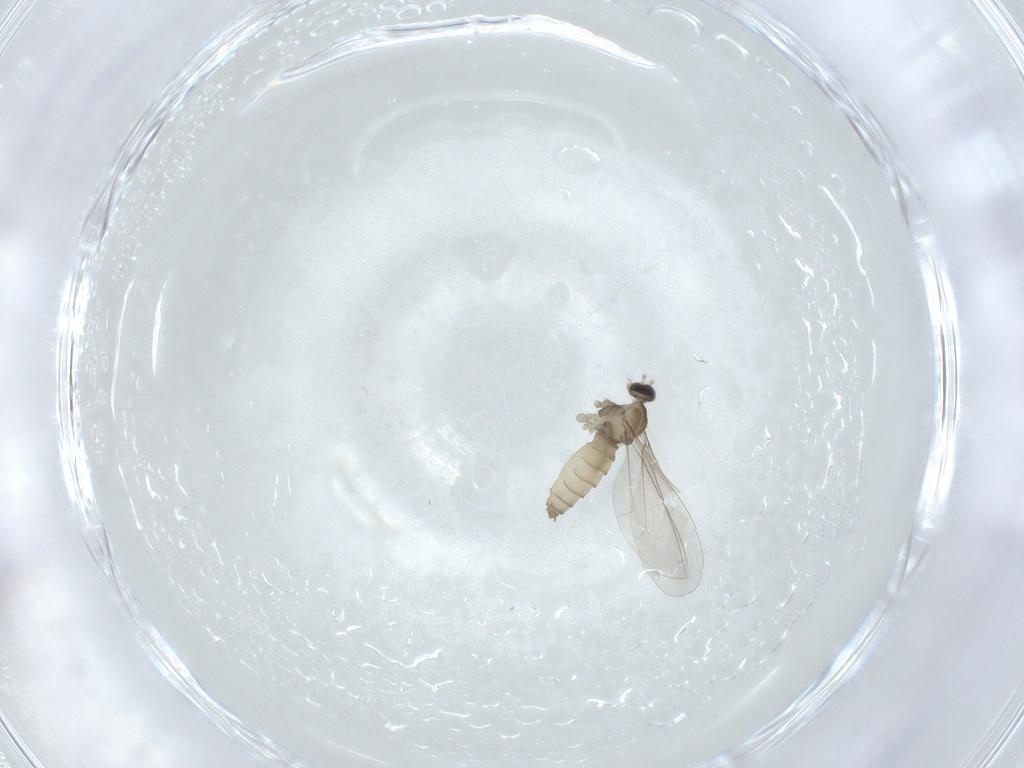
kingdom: Animalia
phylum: Arthropoda
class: Insecta
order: Diptera
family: Cecidomyiidae
